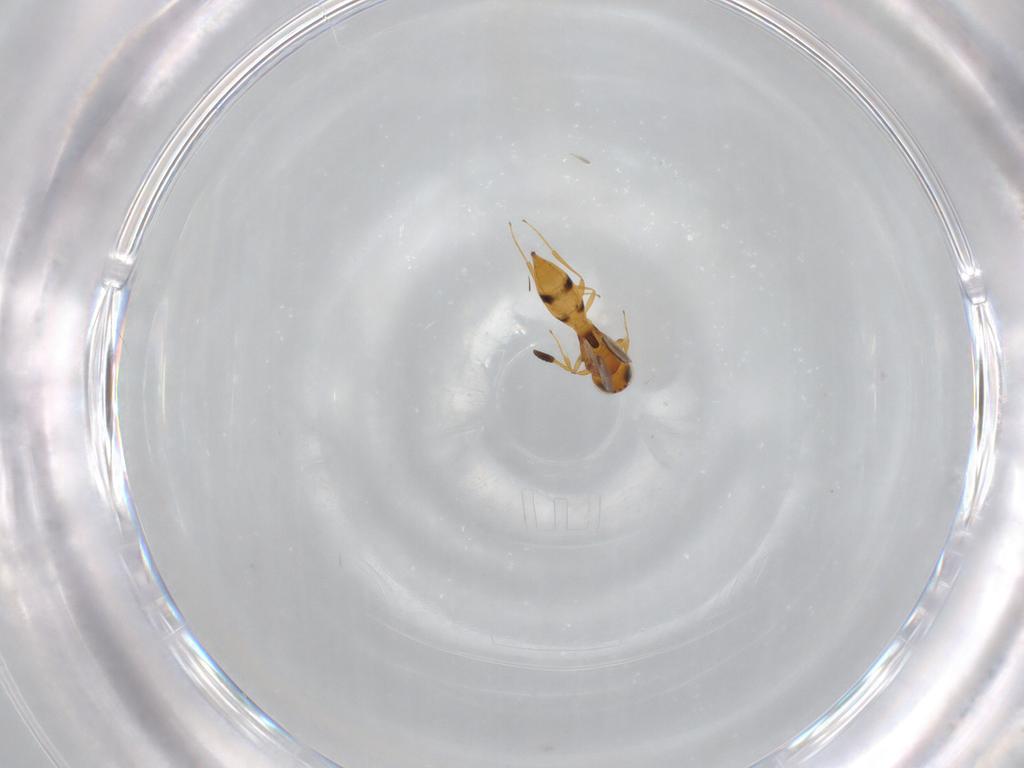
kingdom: Animalia
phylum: Arthropoda
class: Insecta
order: Hymenoptera
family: Scelionidae
